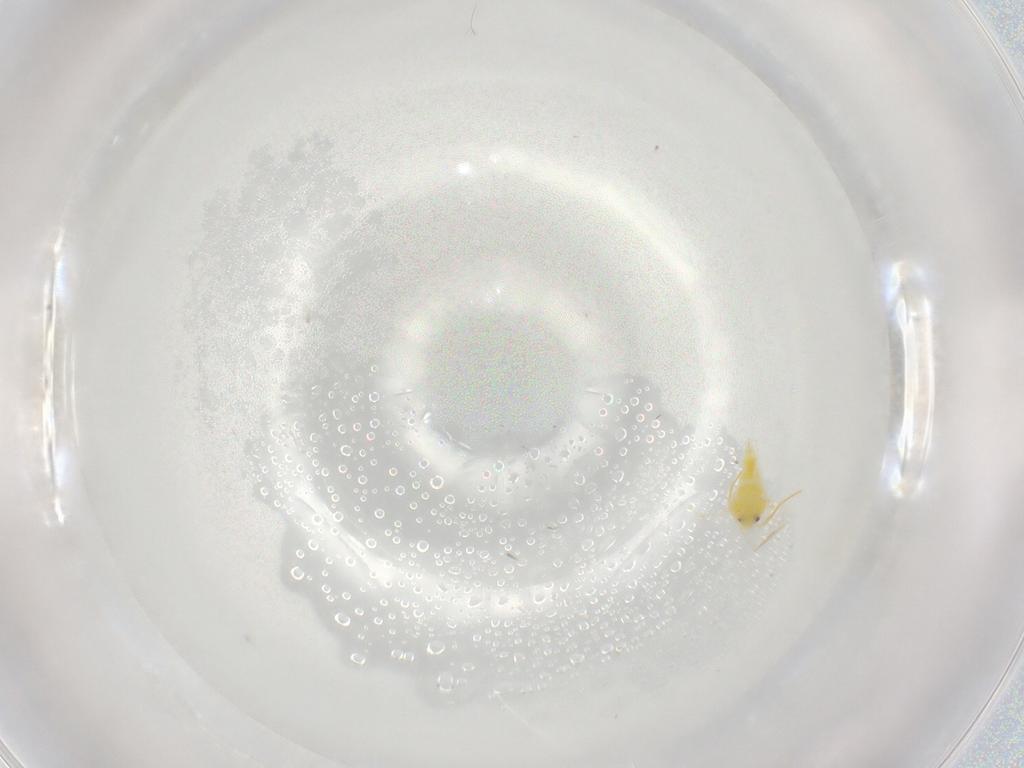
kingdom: Animalia
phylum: Arthropoda
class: Insecta
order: Hemiptera
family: Aleyrodidae
